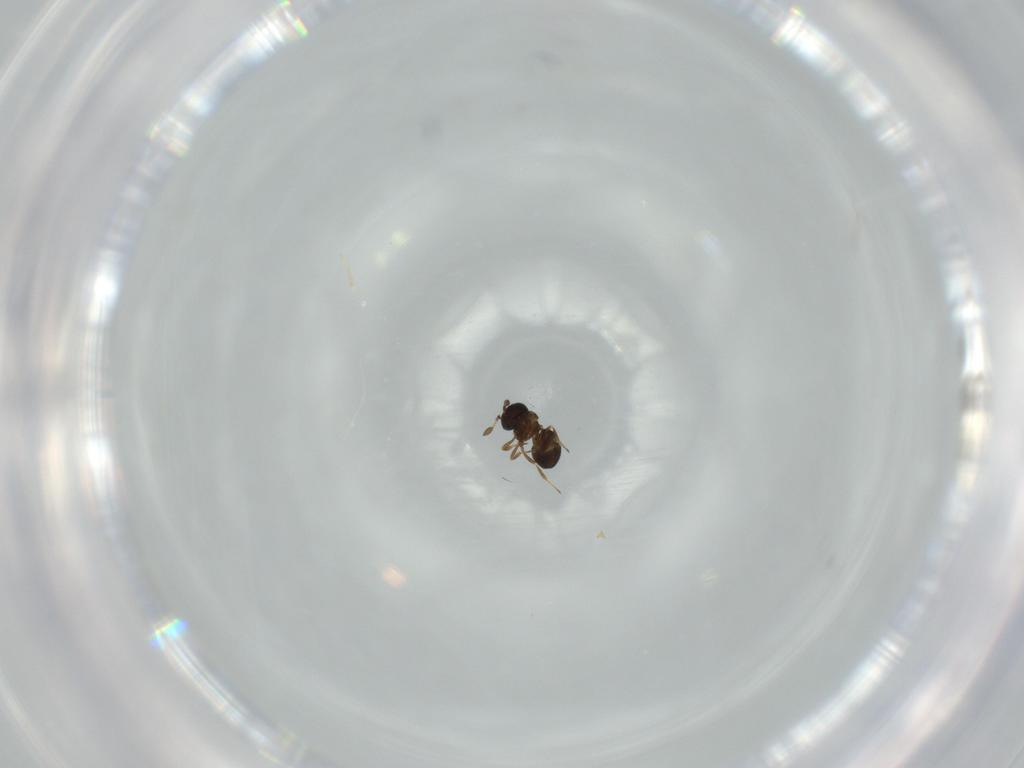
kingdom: Animalia
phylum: Arthropoda
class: Insecta
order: Hymenoptera
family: Scelionidae
